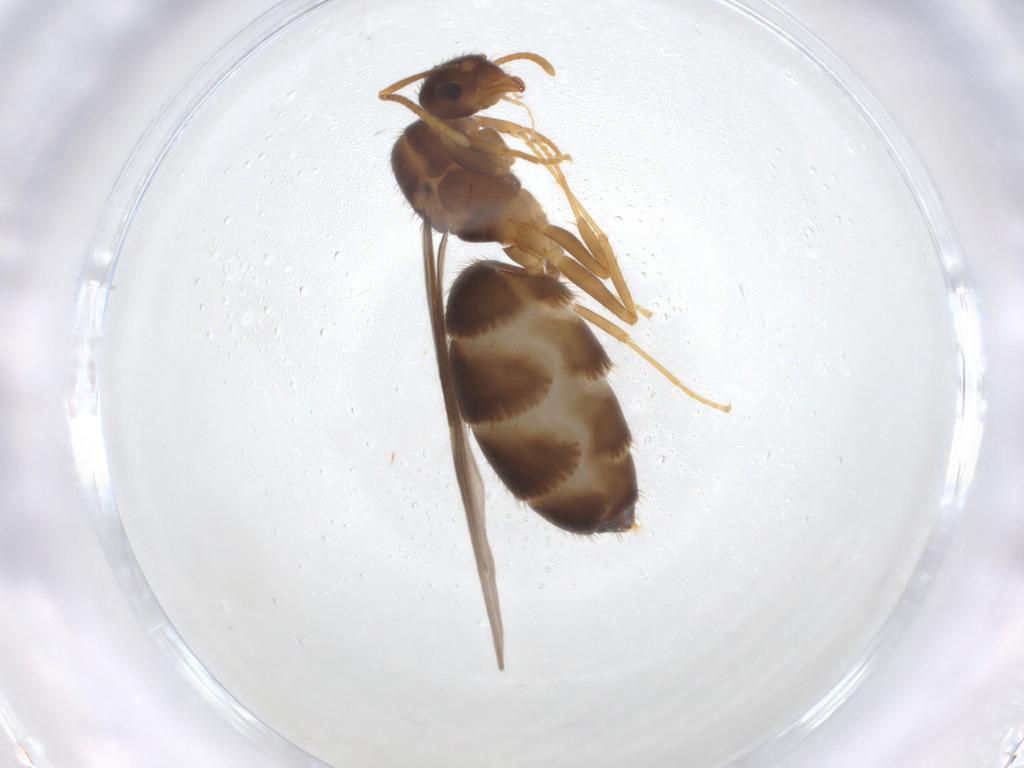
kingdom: Animalia
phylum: Arthropoda
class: Insecta
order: Hymenoptera
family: Formicidae
